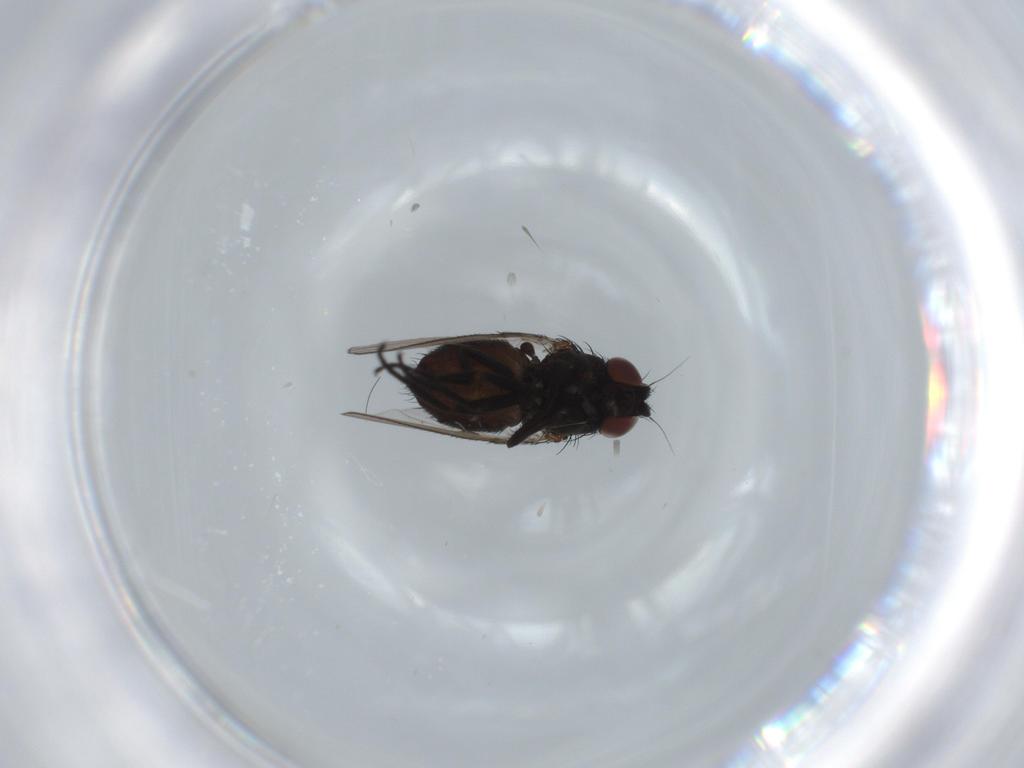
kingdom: Animalia
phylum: Arthropoda
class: Insecta
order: Diptera
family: Milichiidae
